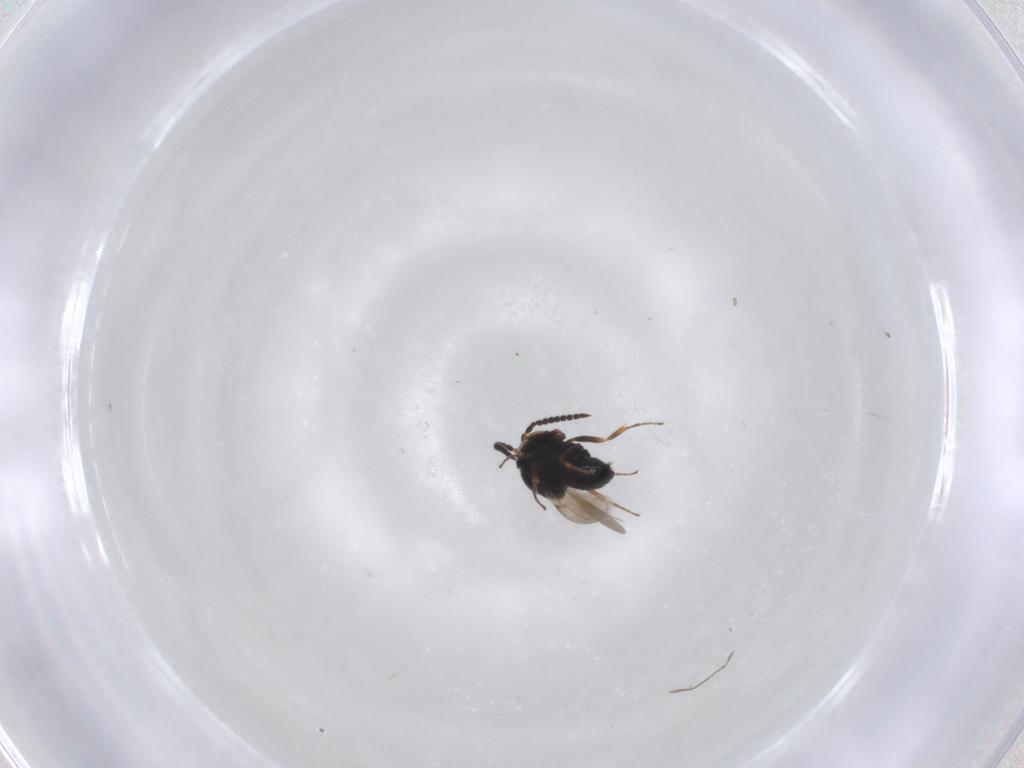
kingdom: Animalia
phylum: Arthropoda
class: Insecta
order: Hymenoptera
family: Scelionidae
